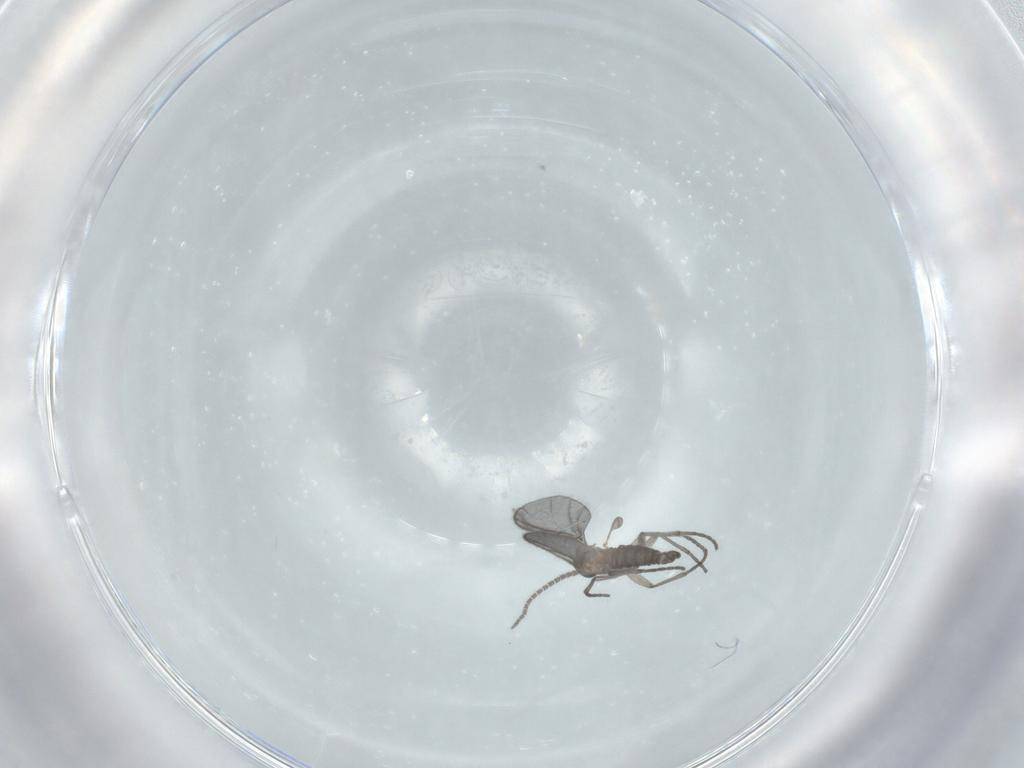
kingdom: Animalia
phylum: Arthropoda
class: Insecta
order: Diptera
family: Sciaridae
